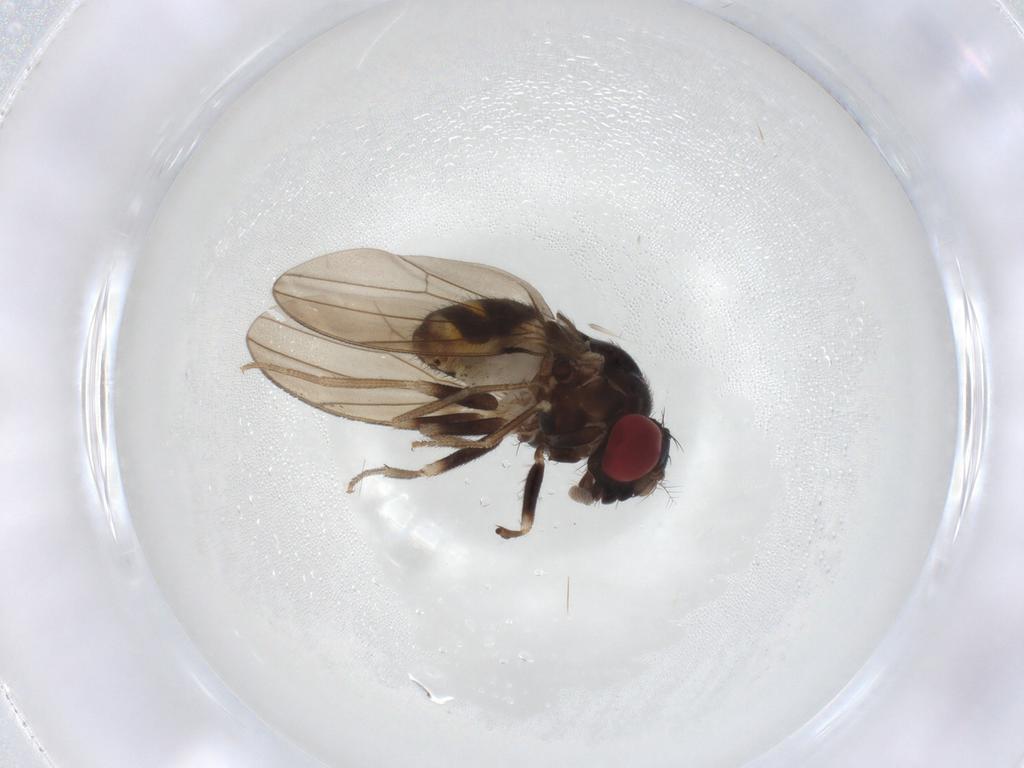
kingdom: Animalia
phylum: Arthropoda
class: Insecta
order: Diptera
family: Drosophilidae
